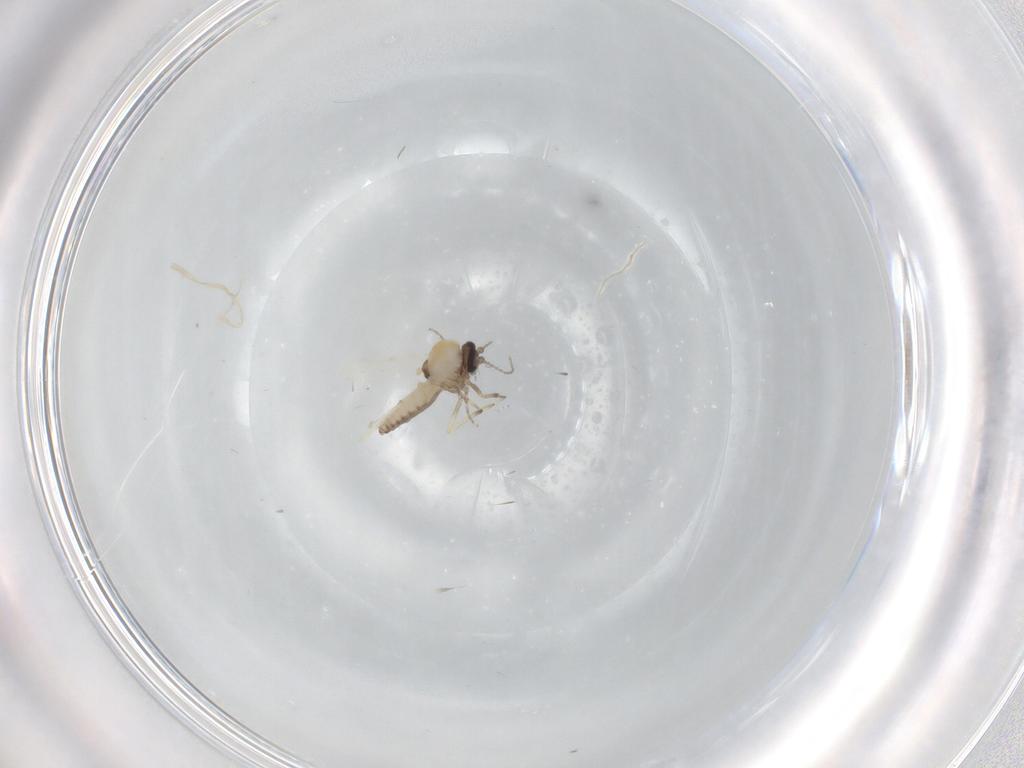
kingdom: Animalia
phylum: Arthropoda
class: Insecta
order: Diptera
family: Ceratopogonidae
